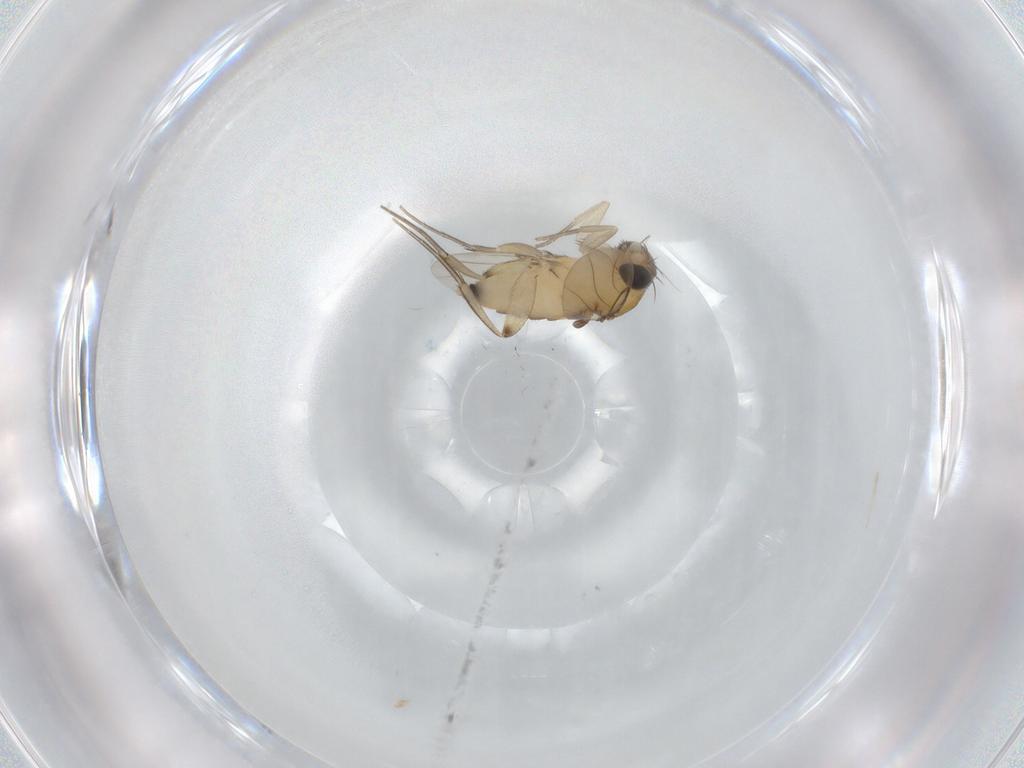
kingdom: Animalia
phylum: Arthropoda
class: Insecta
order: Diptera
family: Phoridae
